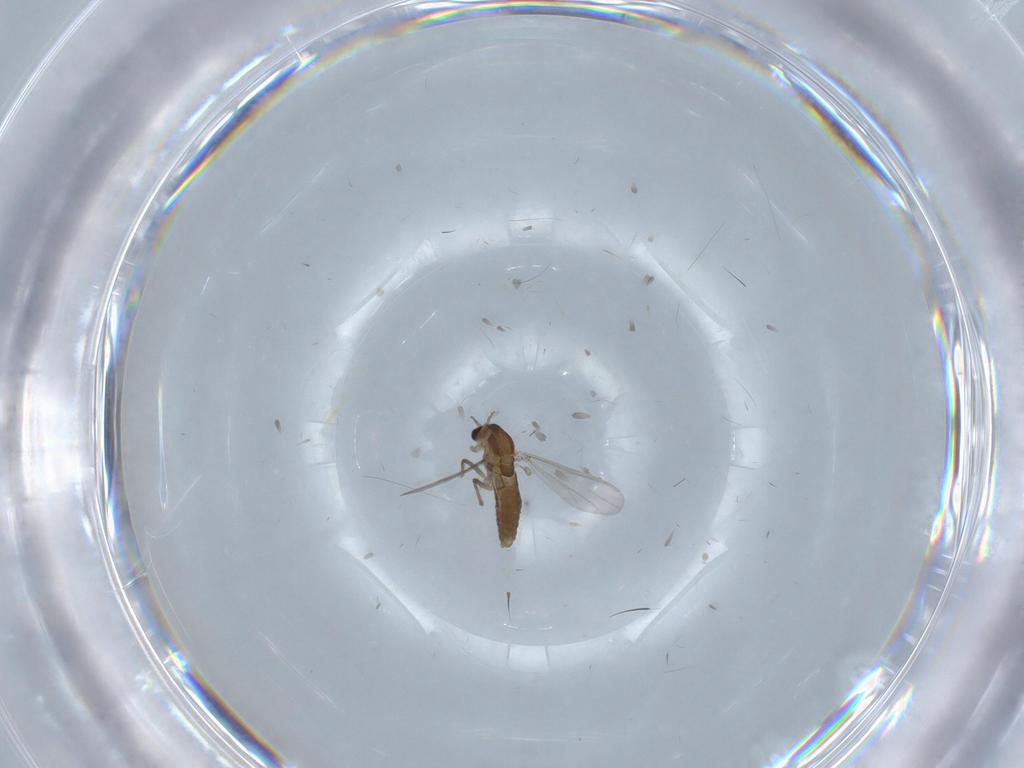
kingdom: Animalia
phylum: Arthropoda
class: Insecta
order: Diptera
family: Chironomidae
